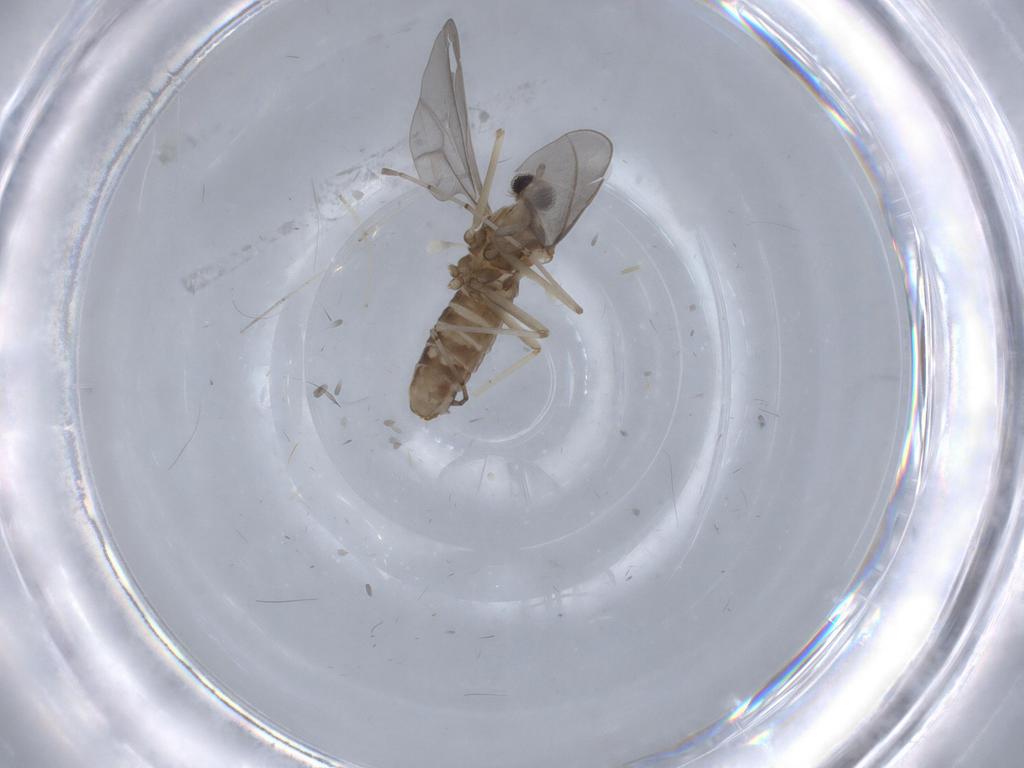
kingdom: Animalia
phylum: Arthropoda
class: Insecta
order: Diptera
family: Cecidomyiidae
